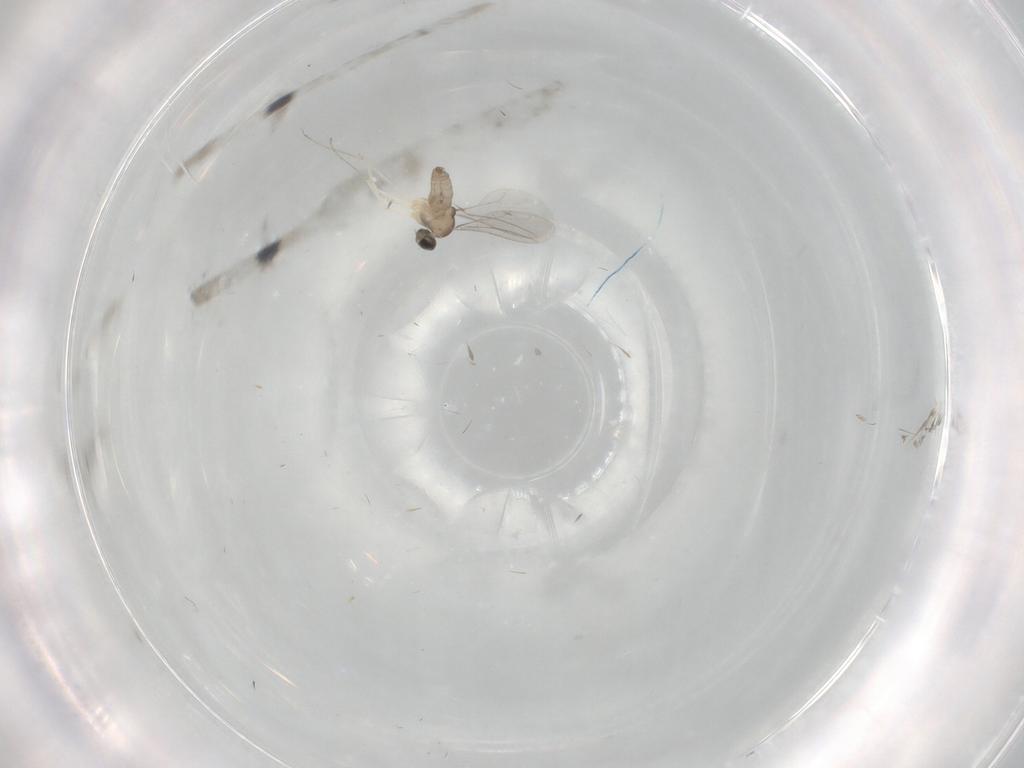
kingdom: Animalia
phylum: Arthropoda
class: Insecta
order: Diptera
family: Cecidomyiidae
